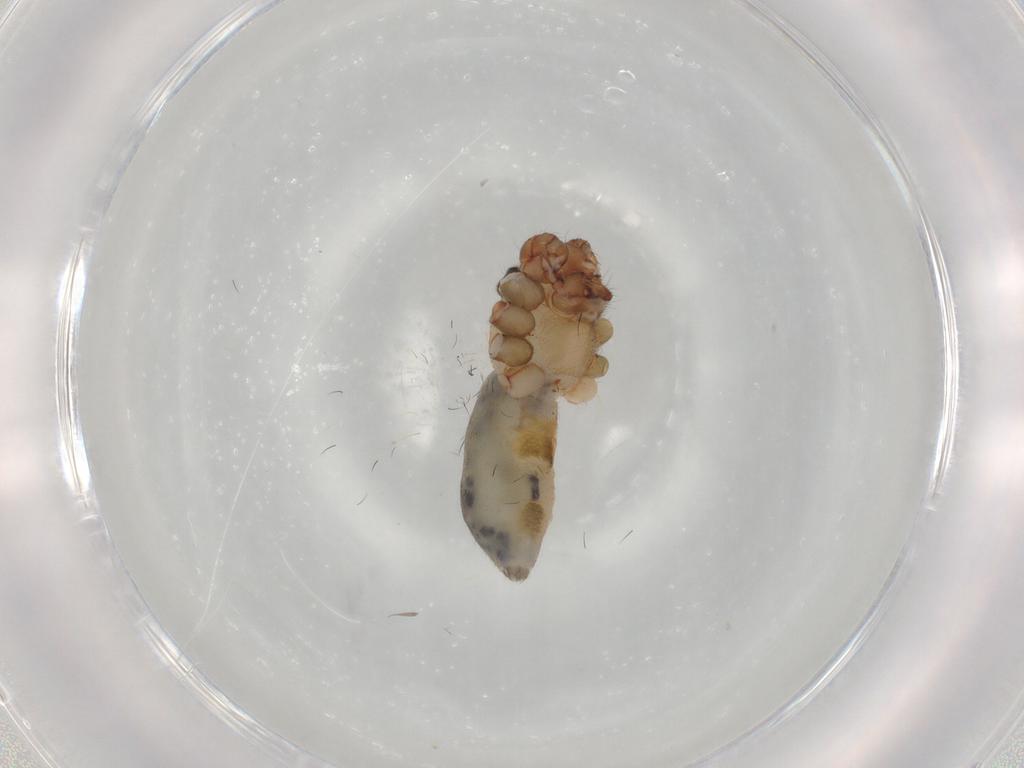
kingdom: Animalia
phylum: Arthropoda
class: Arachnida
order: Araneae
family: Pholcidae
